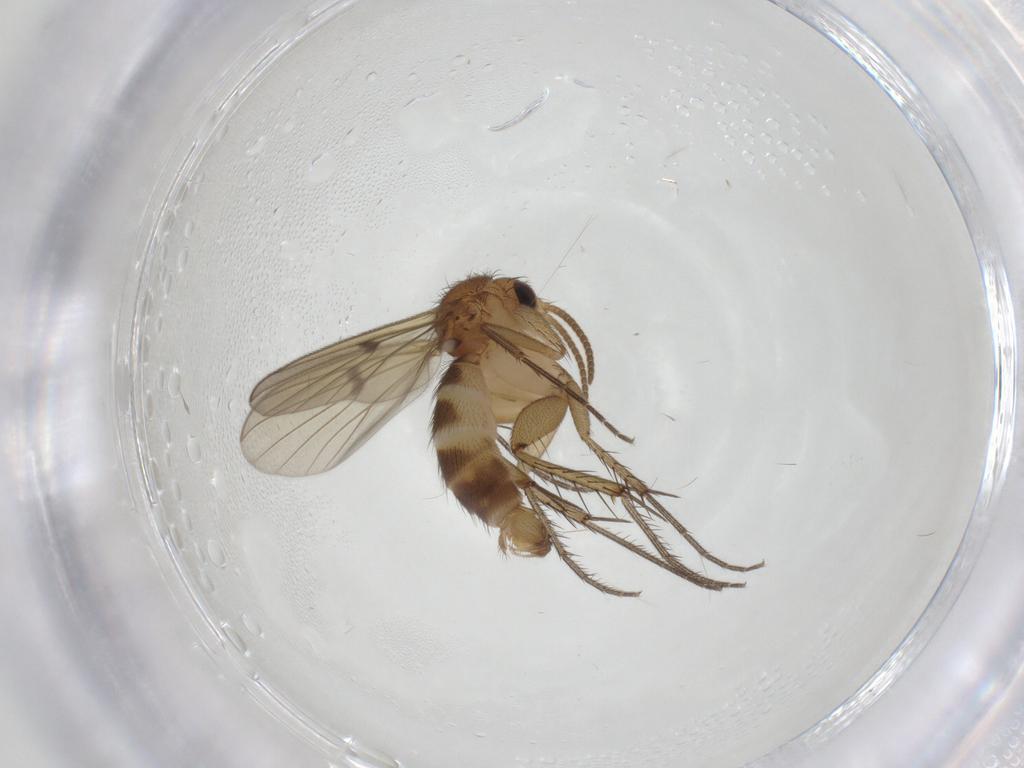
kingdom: Animalia
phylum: Arthropoda
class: Insecta
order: Diptera
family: Mycetophilidae
